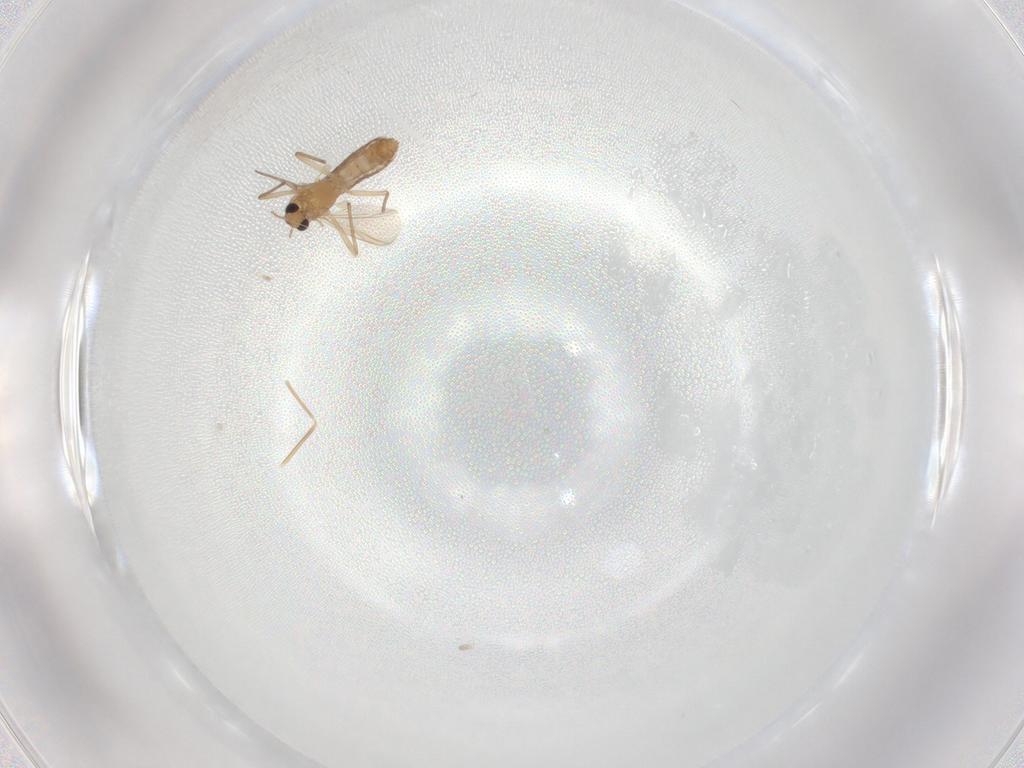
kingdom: Animalia
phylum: Arthropoda
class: Insecta
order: Diptera
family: Chironomidae
